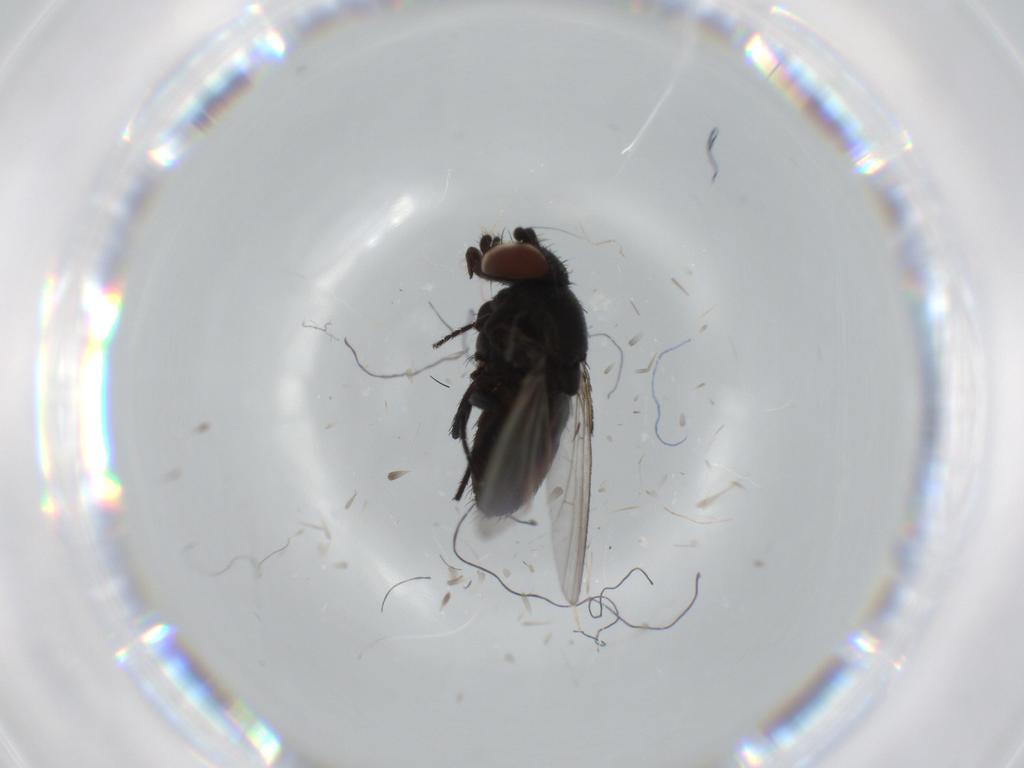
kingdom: Animalia
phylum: Arthropoda
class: Insecta
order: Diptera
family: Milichiidae
